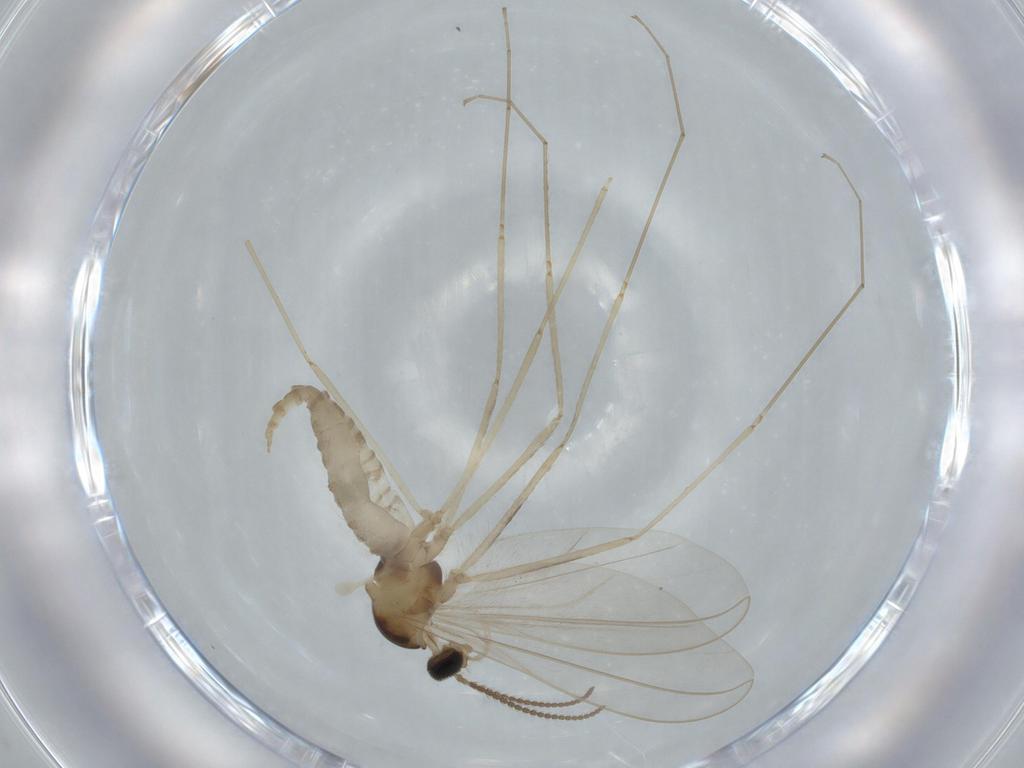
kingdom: Animalia
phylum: Arthropoda
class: Insecta
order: Diptera
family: Cecidomyiidae
